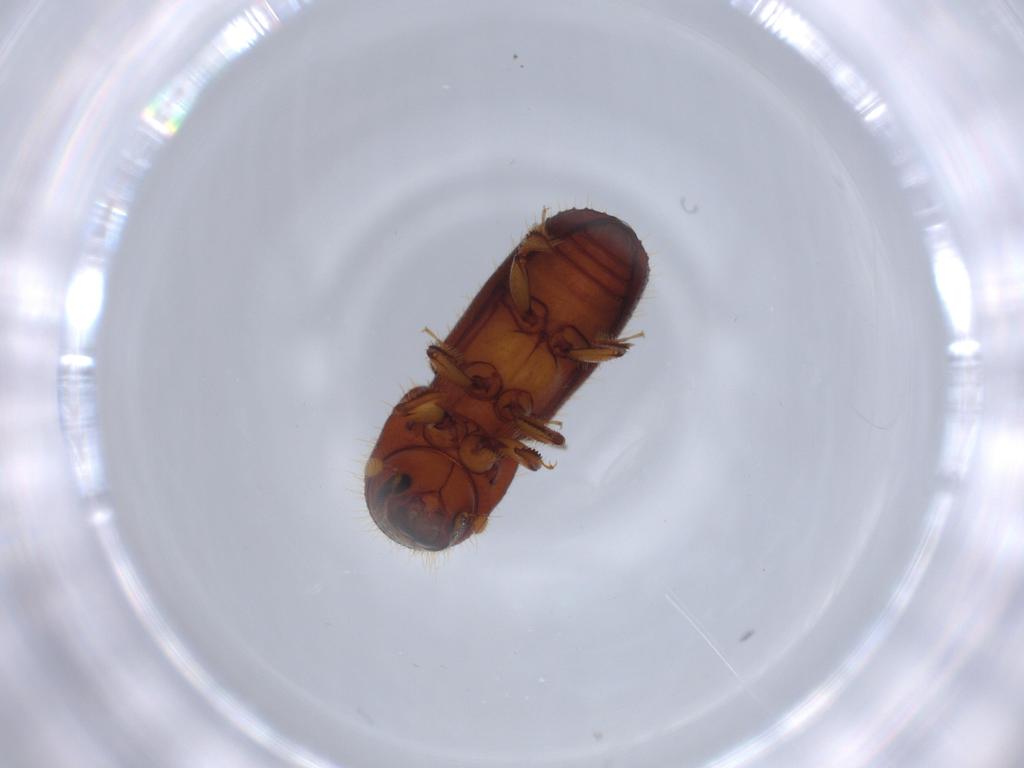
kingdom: Animalia
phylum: Arthropoda
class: Insecta
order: Coleoptera
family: Curculionidae
